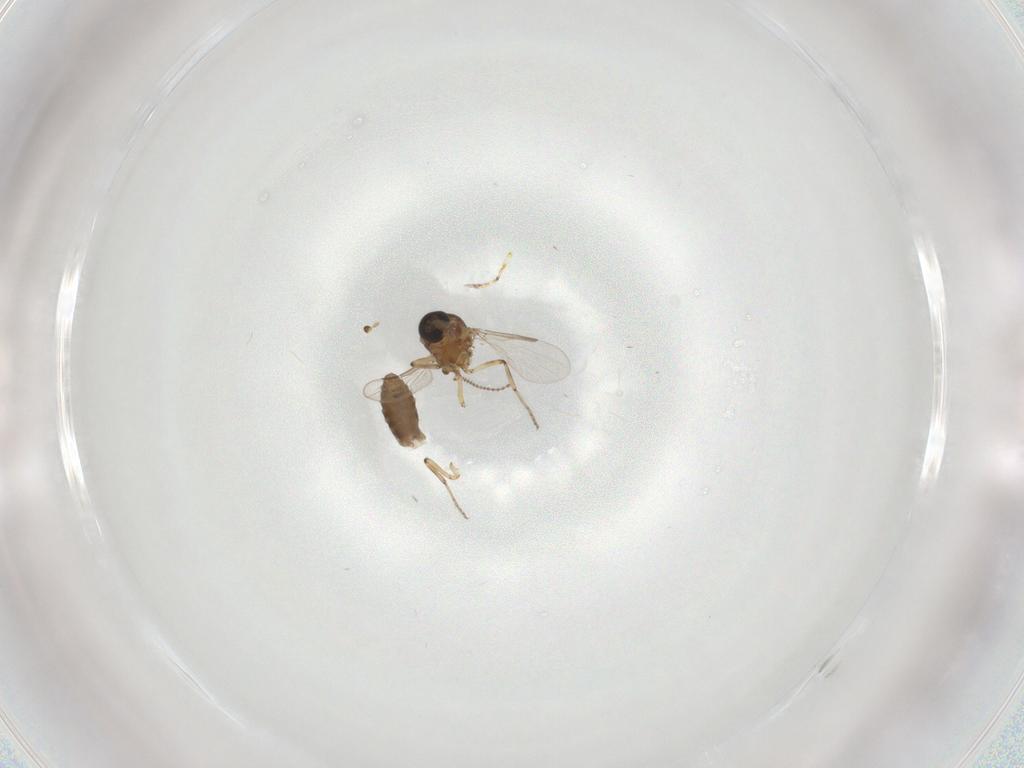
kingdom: Animalia
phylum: Arthropoda
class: Insecta
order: Diptera
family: Ceratopogonidae
